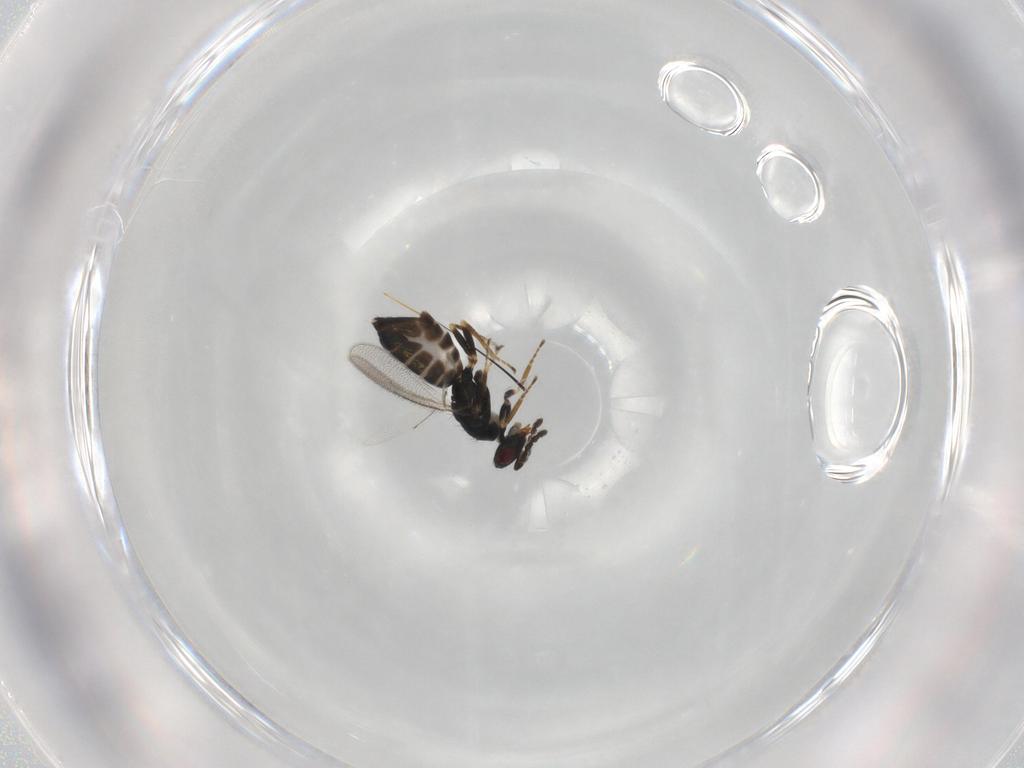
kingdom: Animalia
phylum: Arthropoda
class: Insecta
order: Hymenoptera
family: Eulophidae
